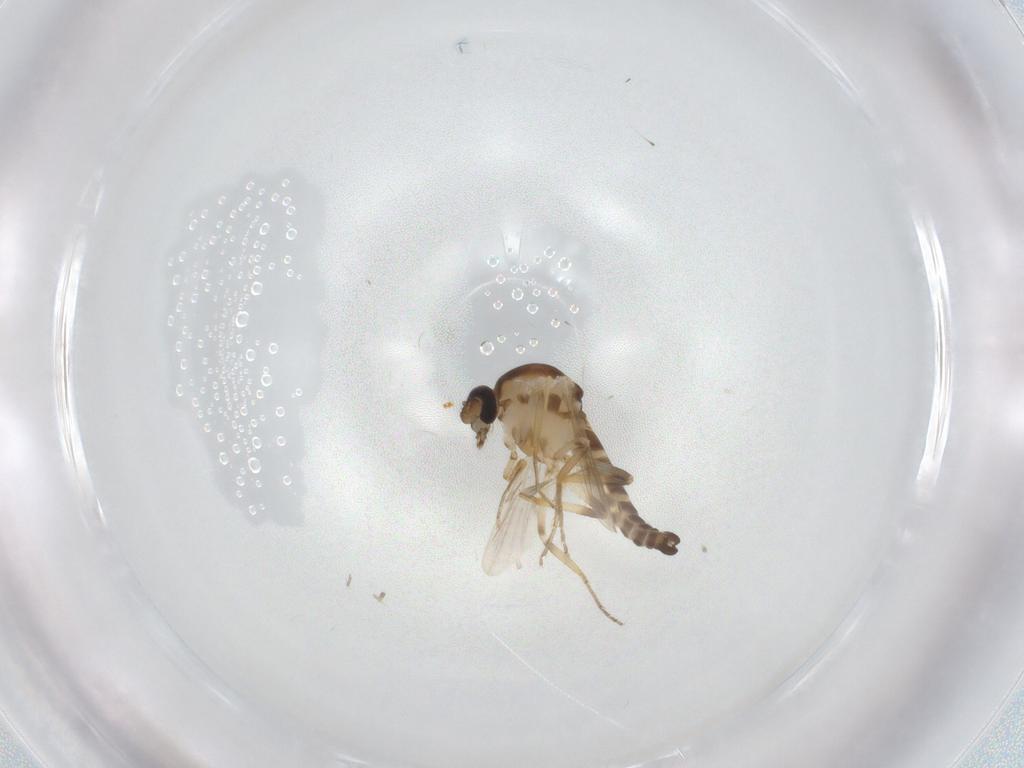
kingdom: Animalia
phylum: Arthropoda
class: Insecta
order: Diptera
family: Ceratopogonidae
